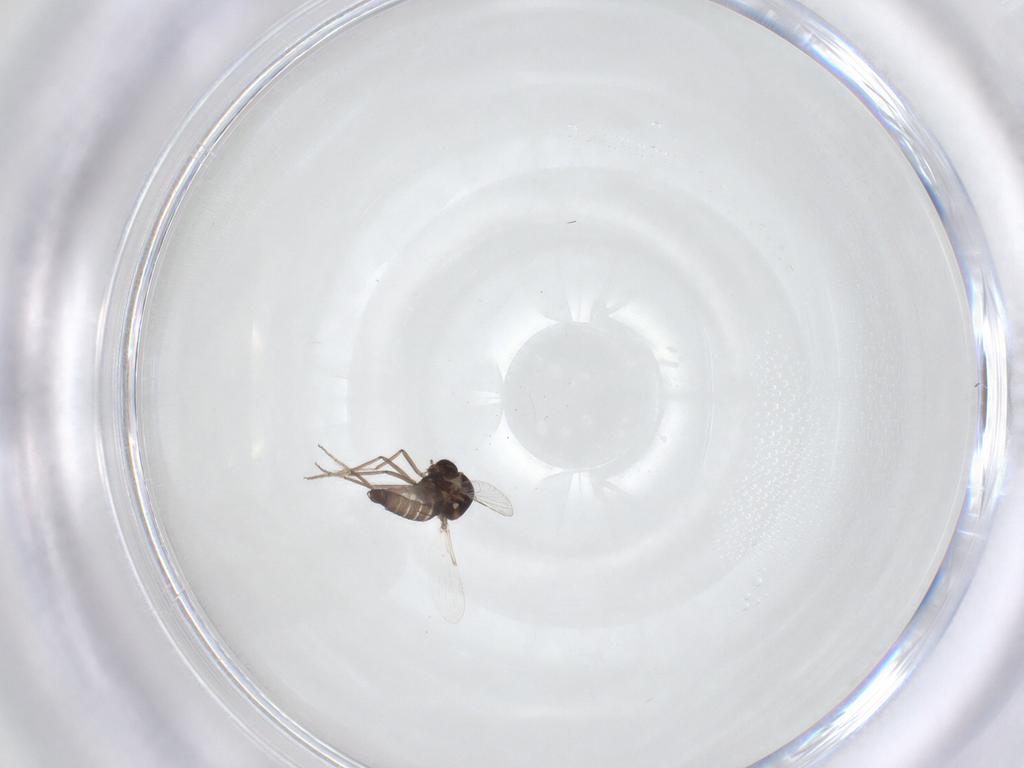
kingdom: Animalia
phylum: Arthropoda
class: Insecta
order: Diptera
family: Ceratopogonidae
